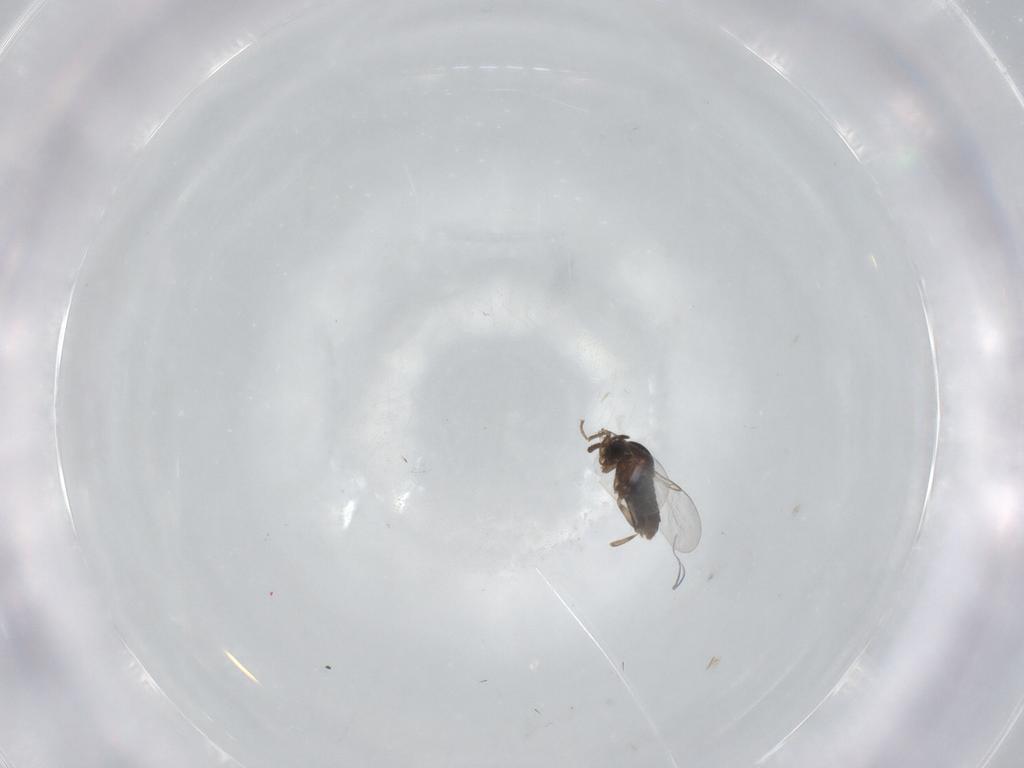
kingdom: Animalia
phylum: Arthropoda
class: Insecta
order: Diptera
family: Scatopsidae
